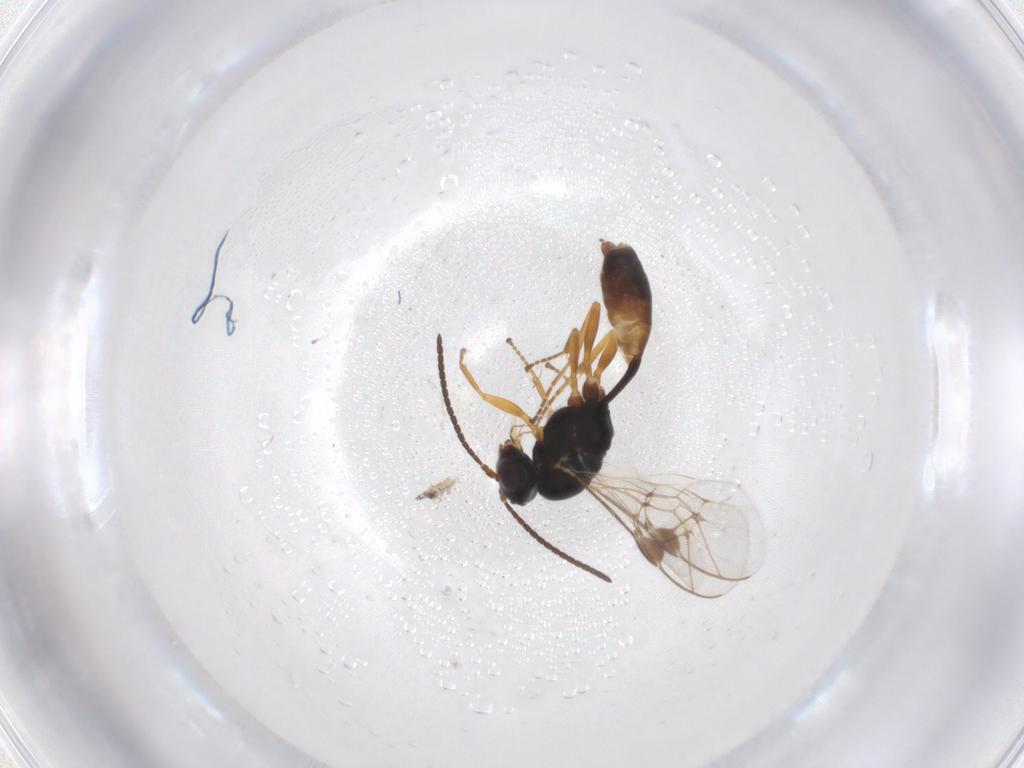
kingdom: Animalia
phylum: Arthropoda
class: Insecta
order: Hymenoptera
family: Ichneumonidae
